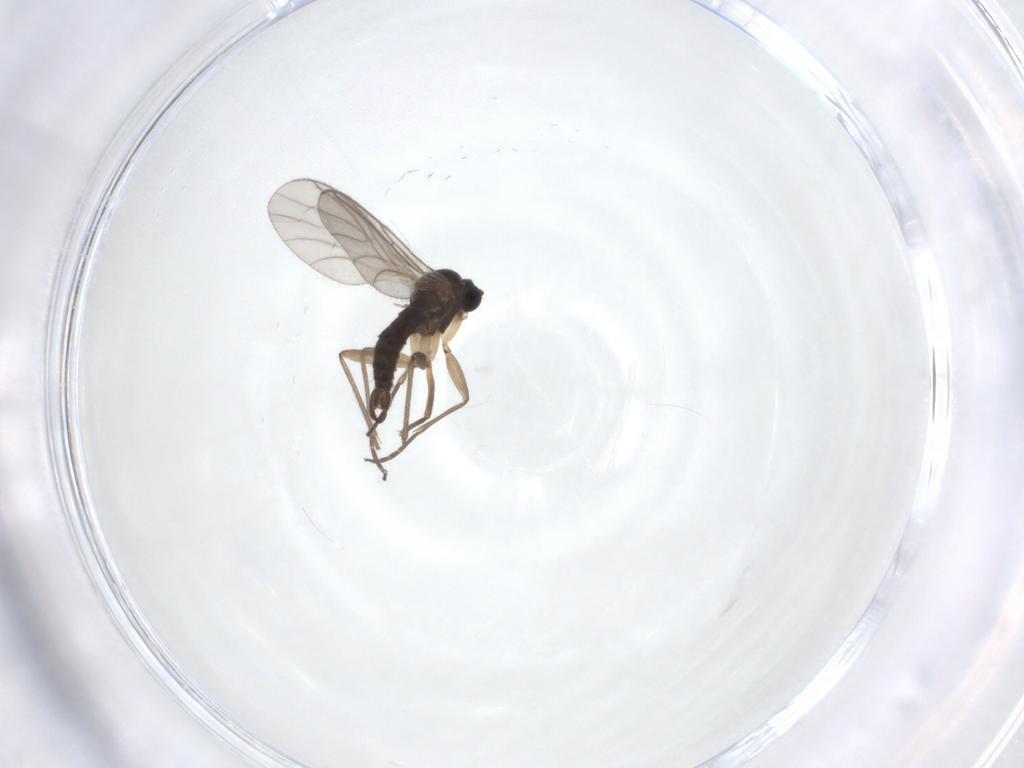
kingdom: Animalia
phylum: Arthropoda
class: Insecta
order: Diptera
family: Sciaridae
